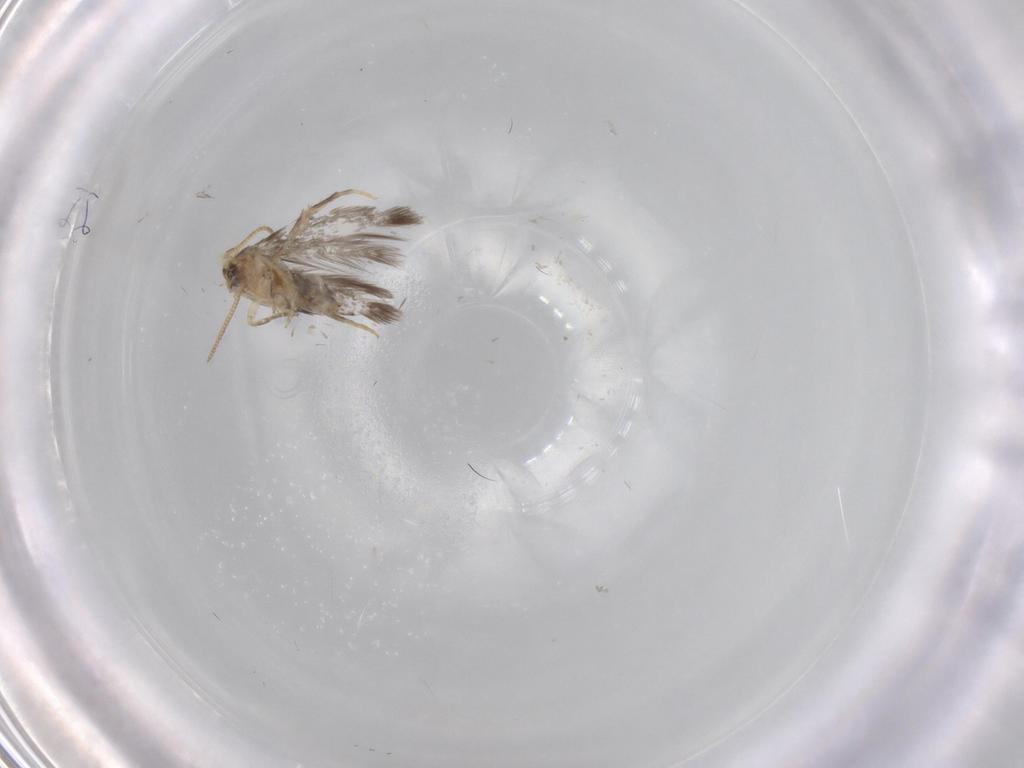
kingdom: Animalia
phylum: Arthropoda
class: Insecta
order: Lepidoptera
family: Nepticulidae
